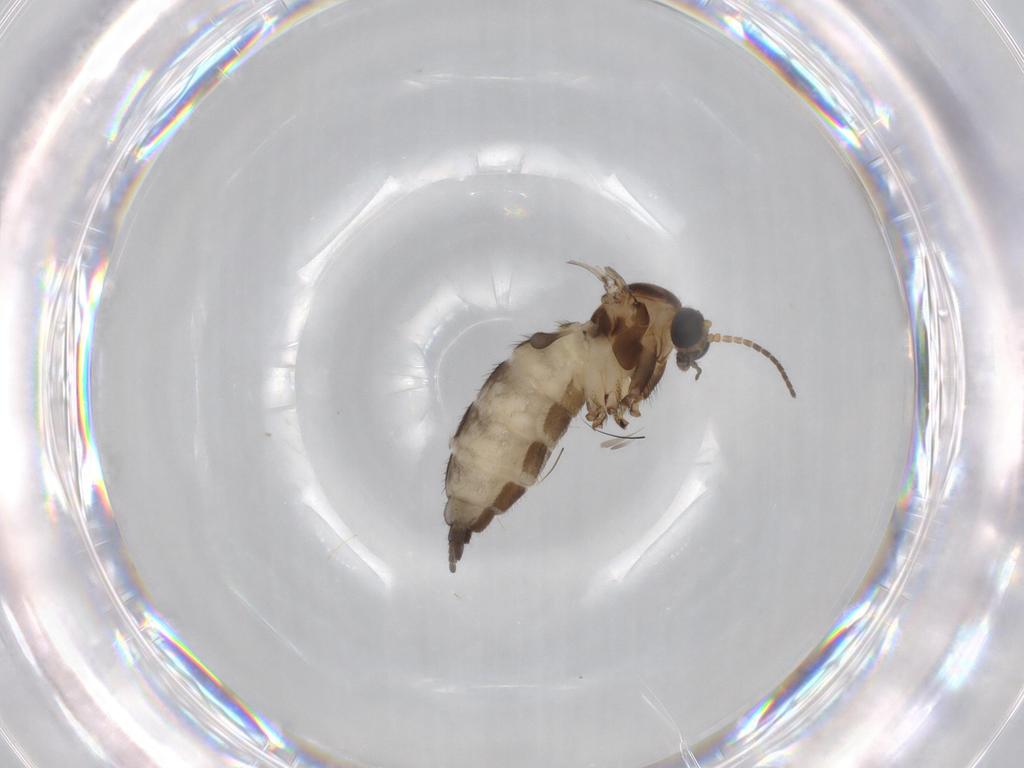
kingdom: Animalia
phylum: Arthropoda
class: Insecta
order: Diptera
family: Sciaridae
